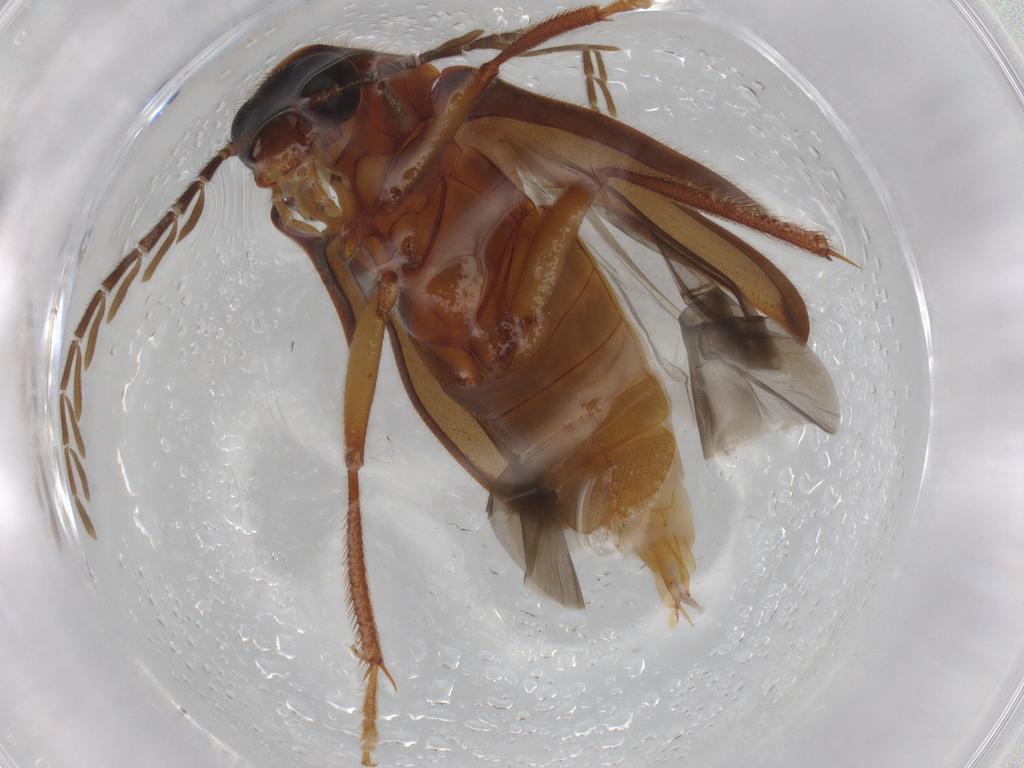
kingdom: Animalia
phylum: Arthropoda
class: Insecta
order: Coleoptera
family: Ptilodactylidae
